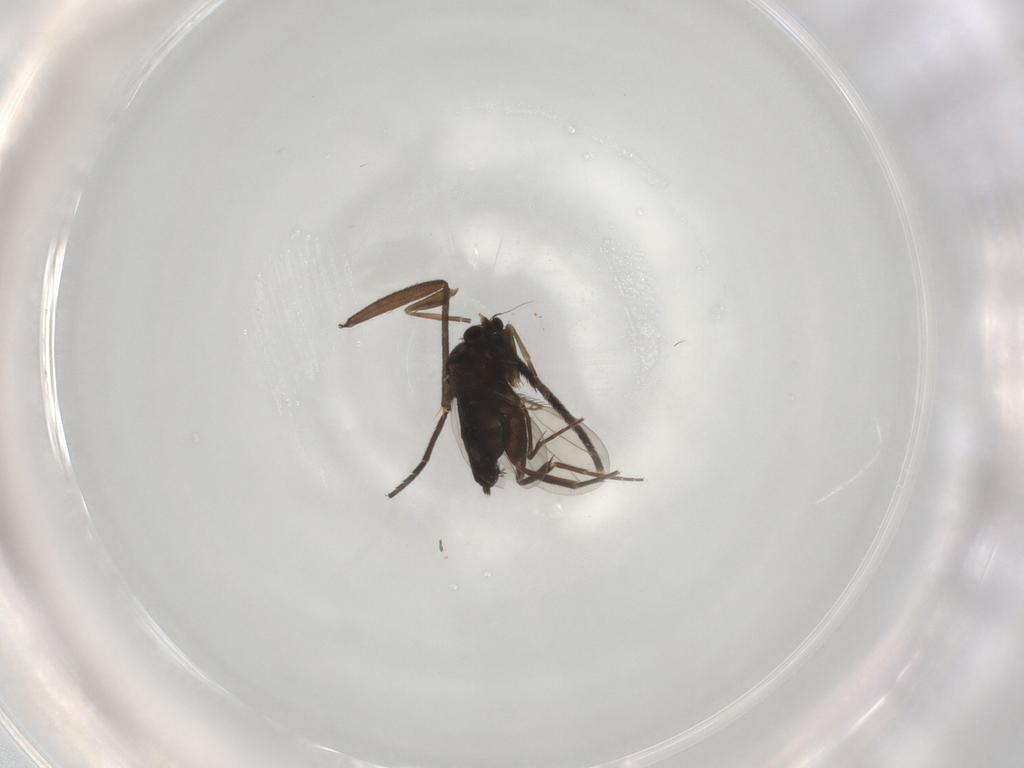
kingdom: Animalia
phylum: Arthropoda
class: Insecta
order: Diptera
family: Phoridae
